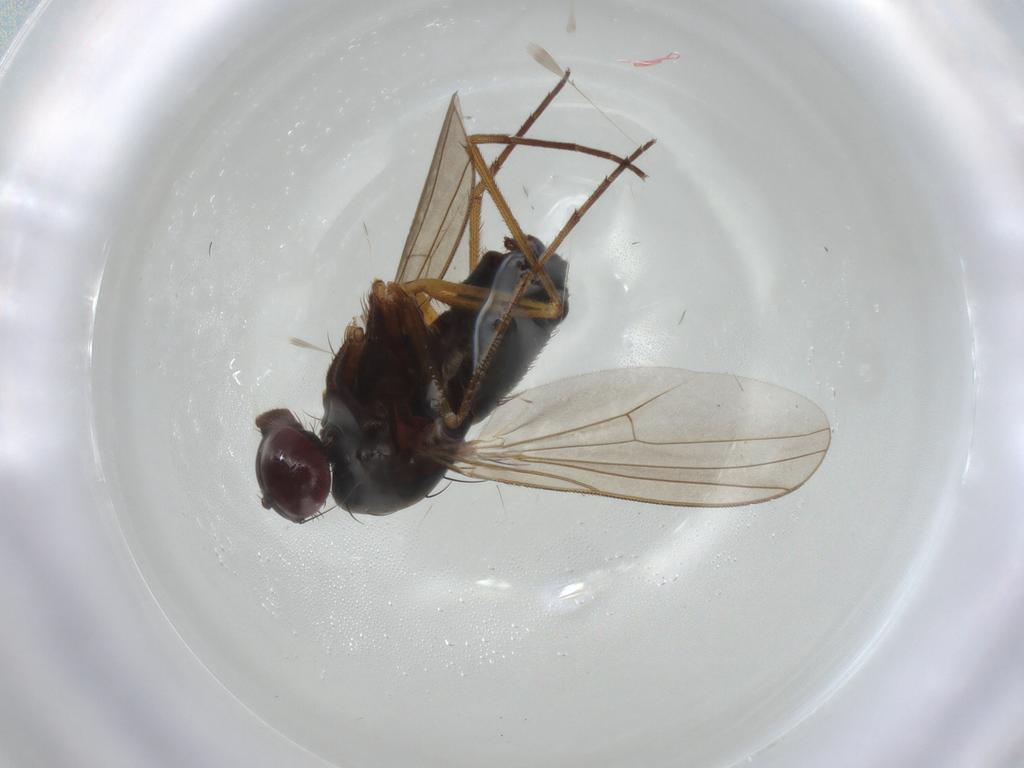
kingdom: Animalia
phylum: Arthropoda
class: Insecta
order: Diptera
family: Dolichopodidae
